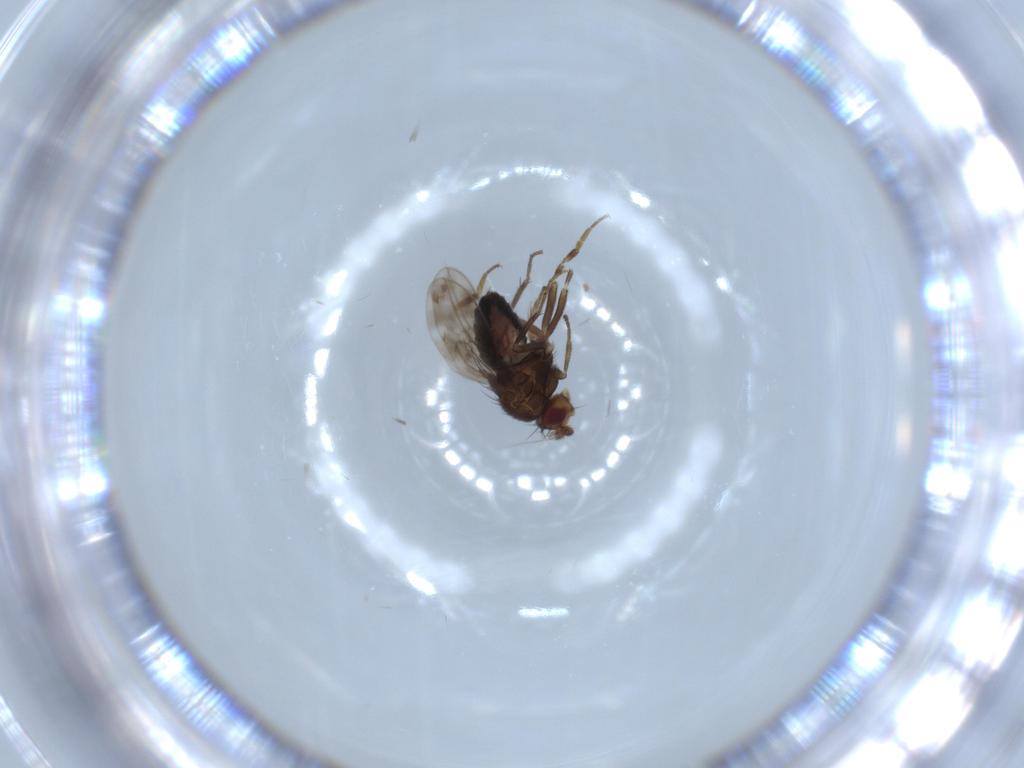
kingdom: Animalia
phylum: Arthropoda
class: Insecta
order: Diptera
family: Sphaeroceridae
